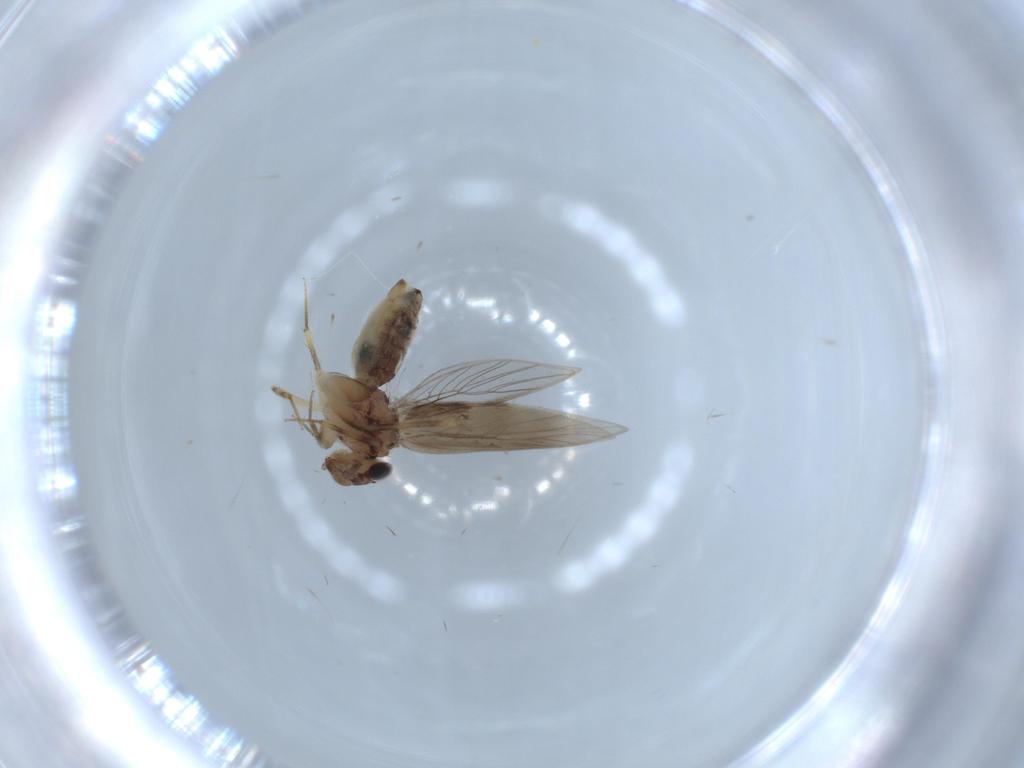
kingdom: Animalia
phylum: Arthropoda
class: Insecta
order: Psocodea
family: Lepidopsocidae
